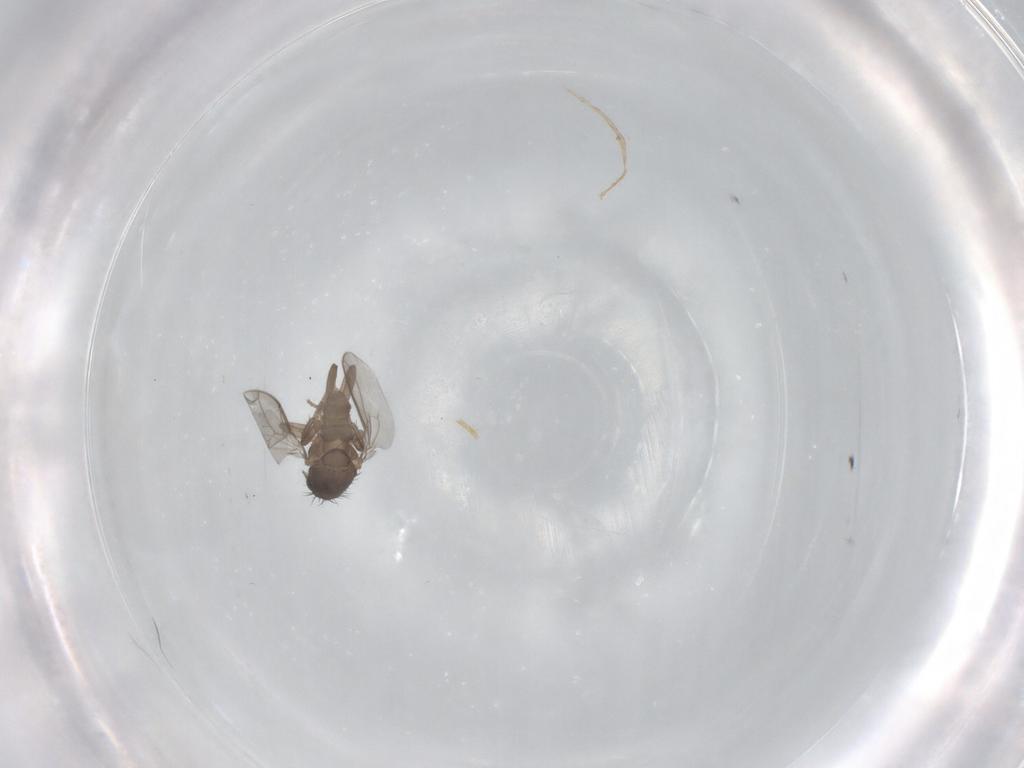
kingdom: Animalia
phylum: Arthropoda
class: Insecta
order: Diptera
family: Sphaeroceridae
